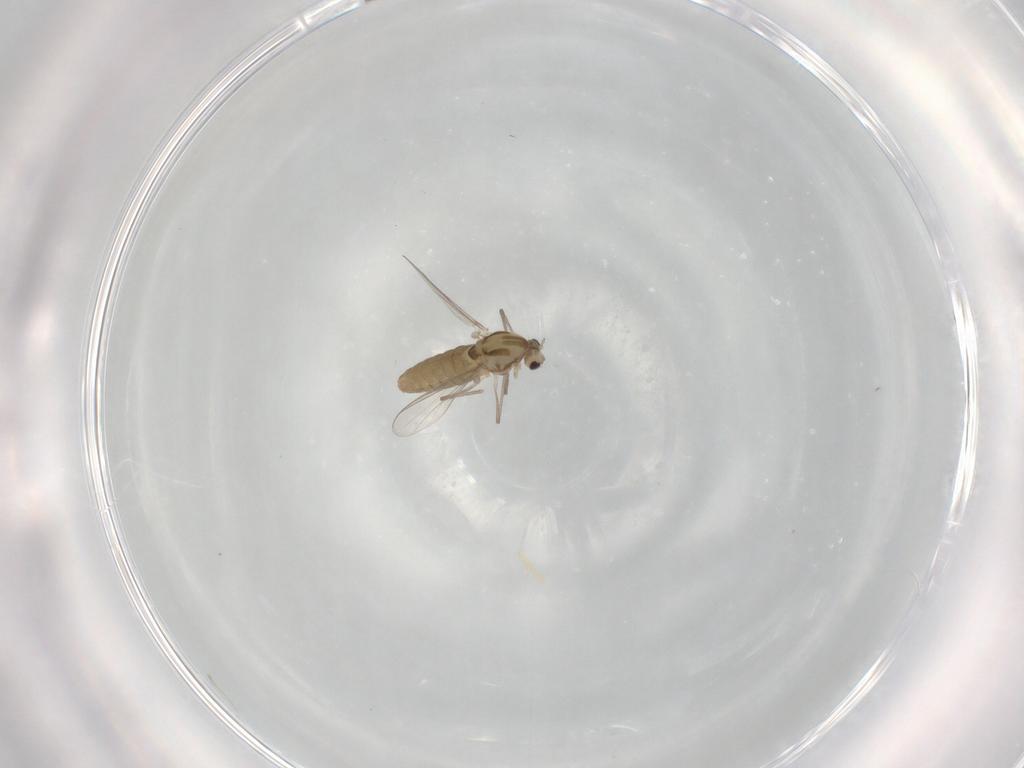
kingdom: Animalia
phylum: Arthropoda
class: Insecta
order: Diptera
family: Chironomidae
